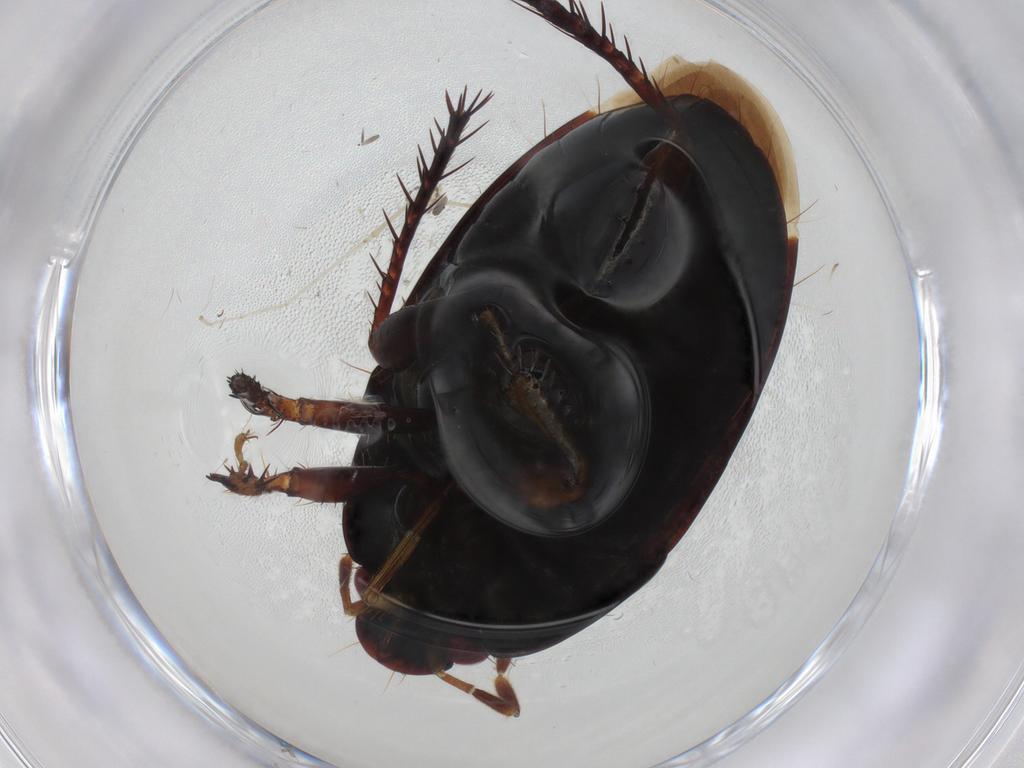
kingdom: Animalia
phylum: Arthropoda
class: Insecta
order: Hemiptera
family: Cydnidae
